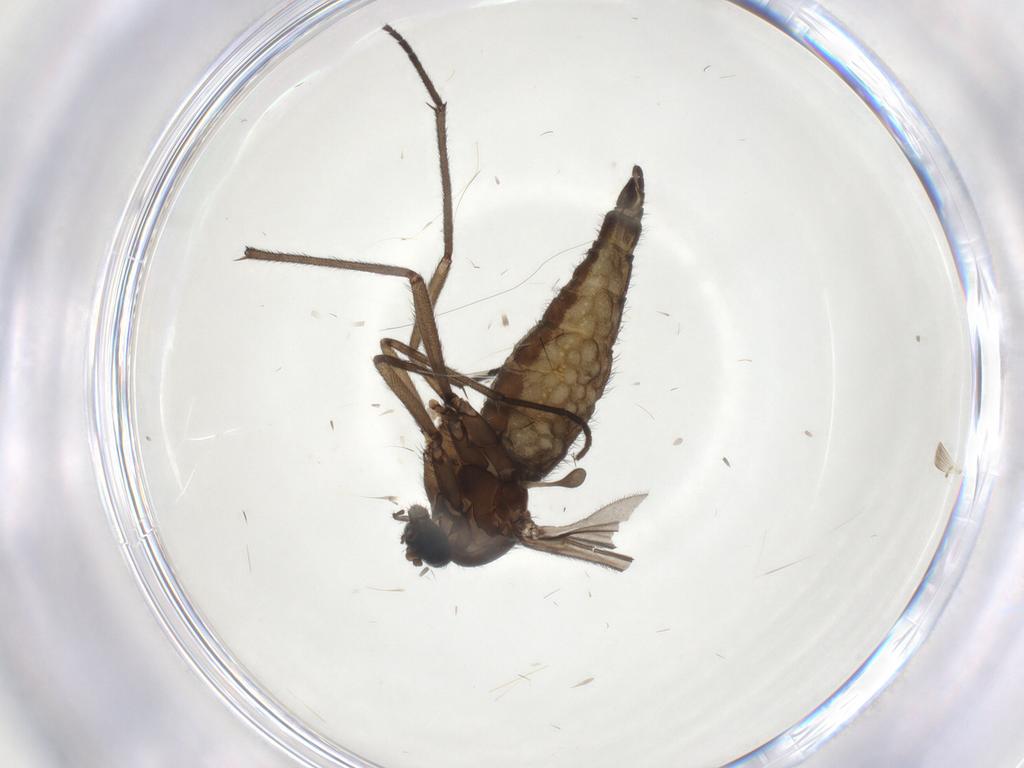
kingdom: Animalia
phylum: Arthropoda
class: Insecta
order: Diptera
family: Sciaridae
